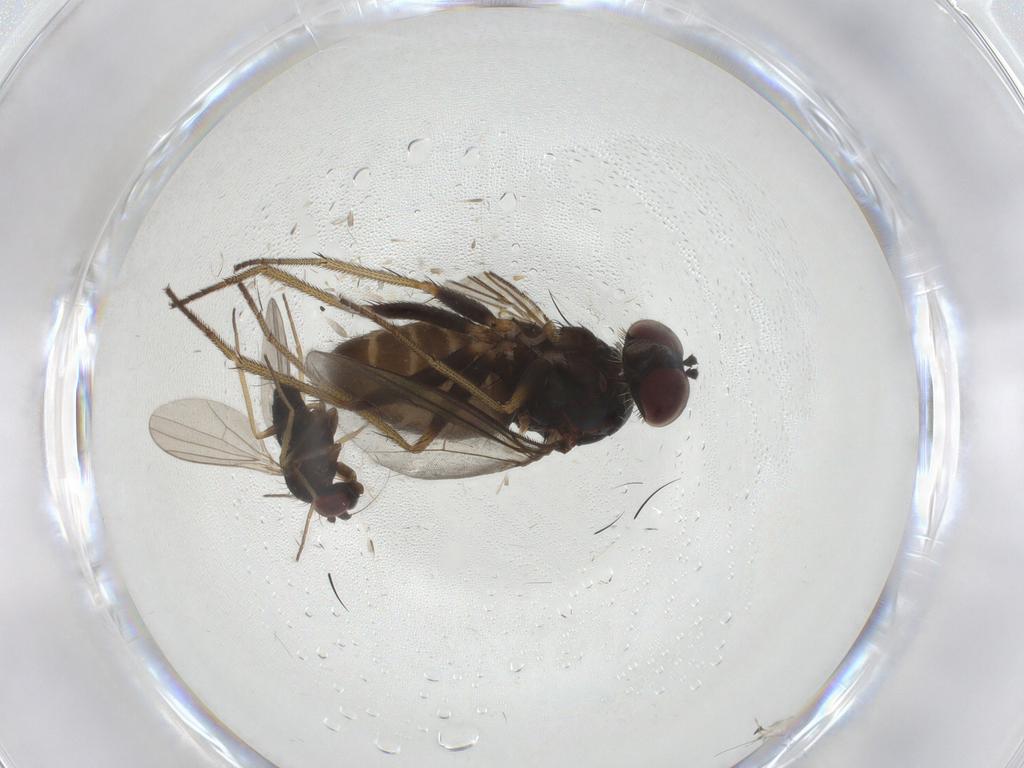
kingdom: Animalia
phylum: Arthropoda
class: Insecta
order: Diptera
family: Cecidomyiidae
